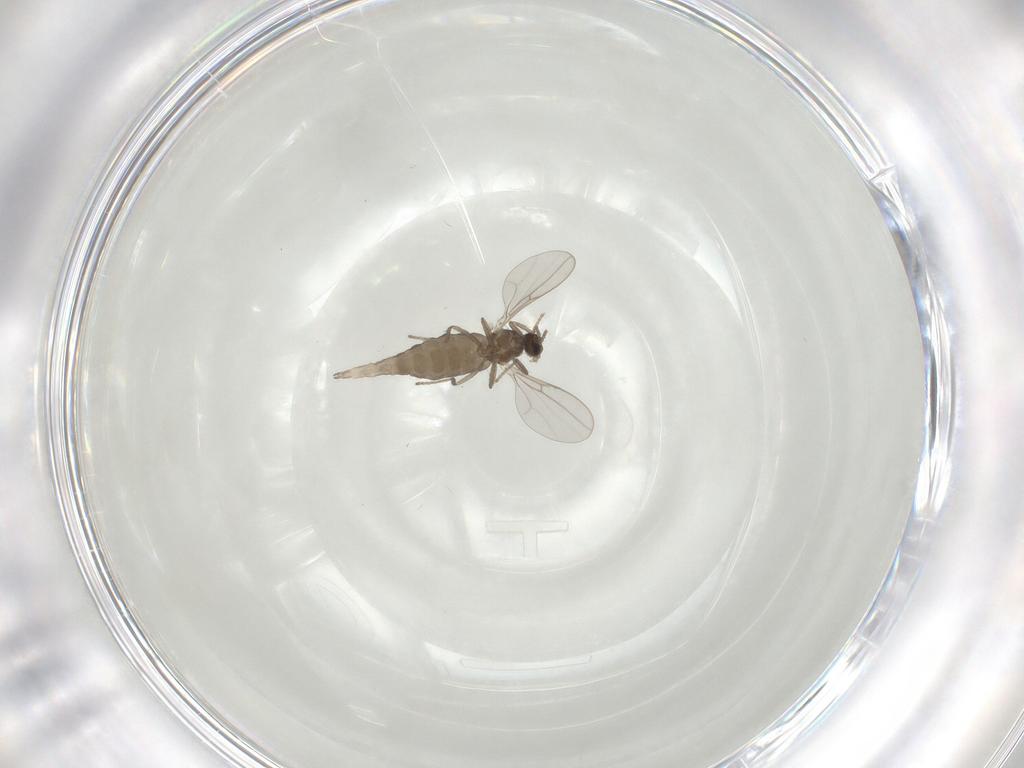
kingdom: Animalia
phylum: Arthropoda
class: Insecta
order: Diptera
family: Cecidomyiidae
